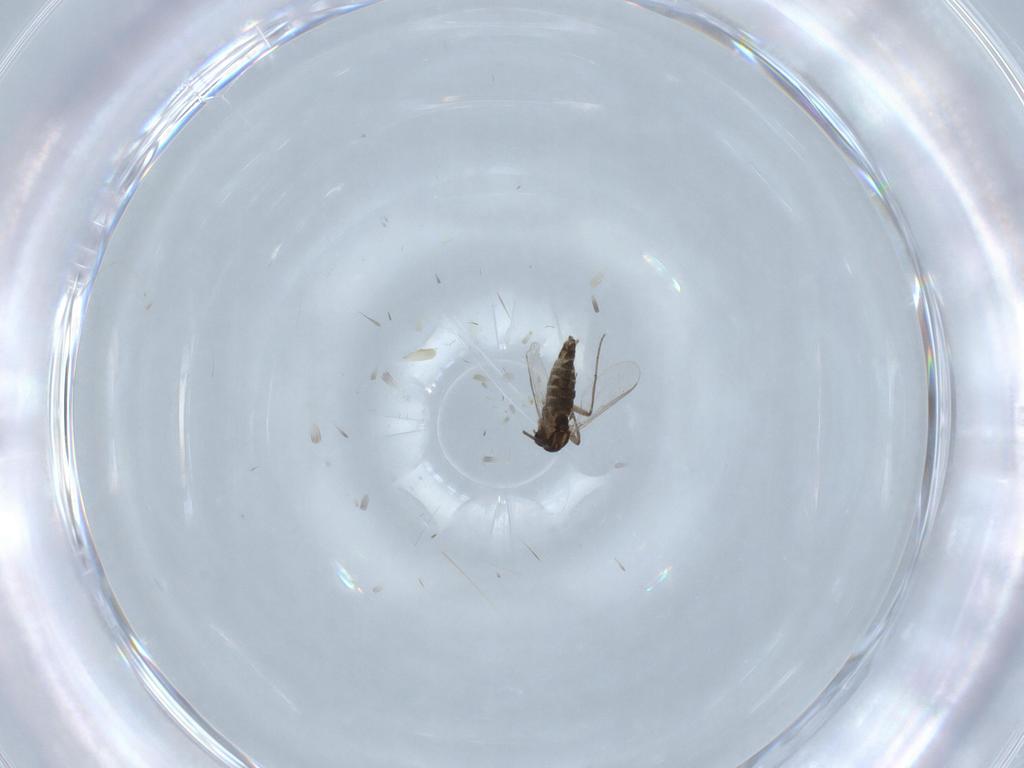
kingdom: Animalia
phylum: Arthropoda
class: Insecta
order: Diptera
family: Chironomidae
